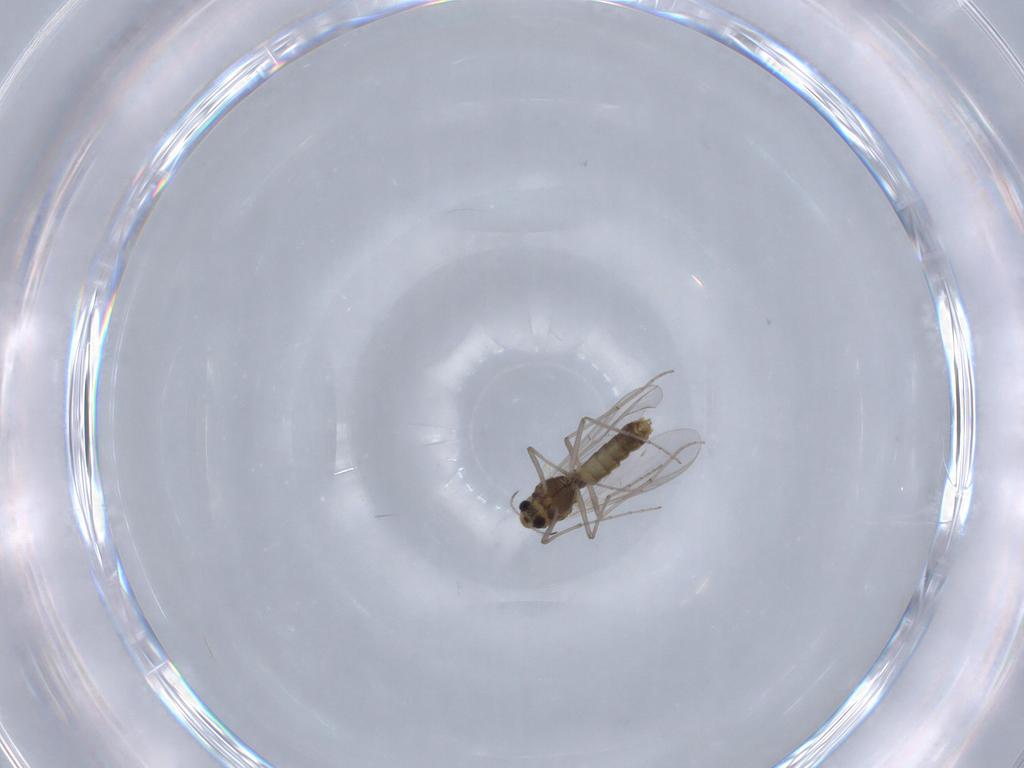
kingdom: Animalia
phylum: Arthropoda
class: Insecta
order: Diptera
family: Chironomidae
